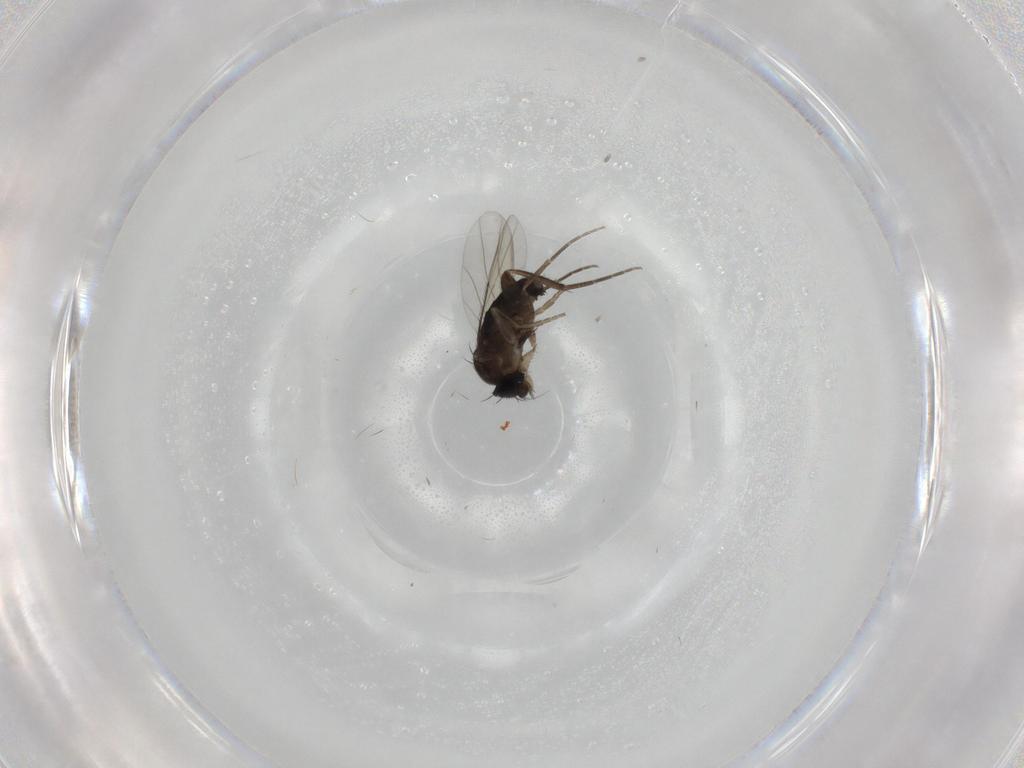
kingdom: Animalia
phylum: Arthropoda
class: Insecta
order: Diptera
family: Phoridae
